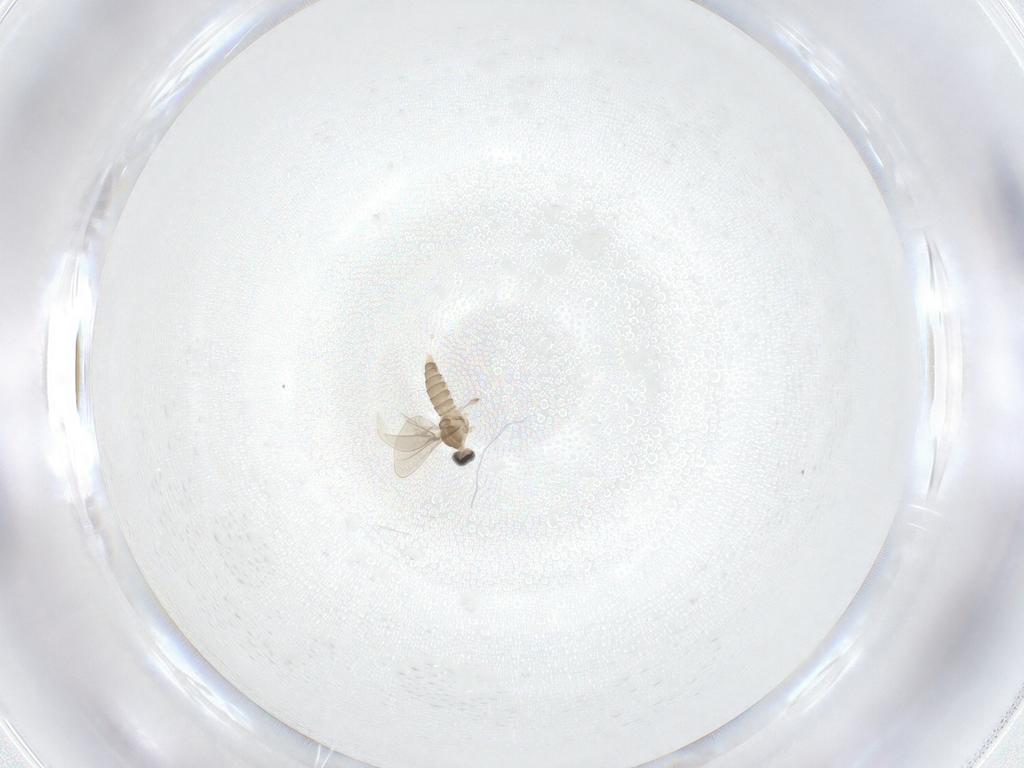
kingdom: Animalia
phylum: Arthropoda
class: Insecta
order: Diptera
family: Cecidomyiidae
